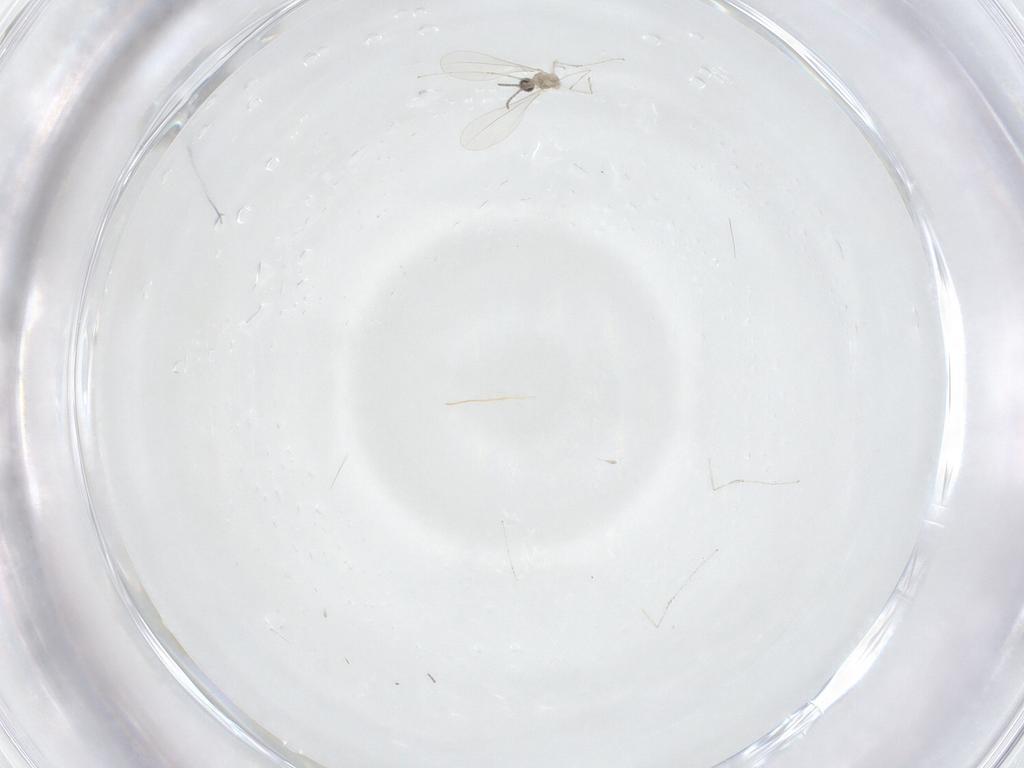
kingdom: Animalia
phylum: Arthropoda
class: Insecta
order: Diptera
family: Cecidomyiidae
